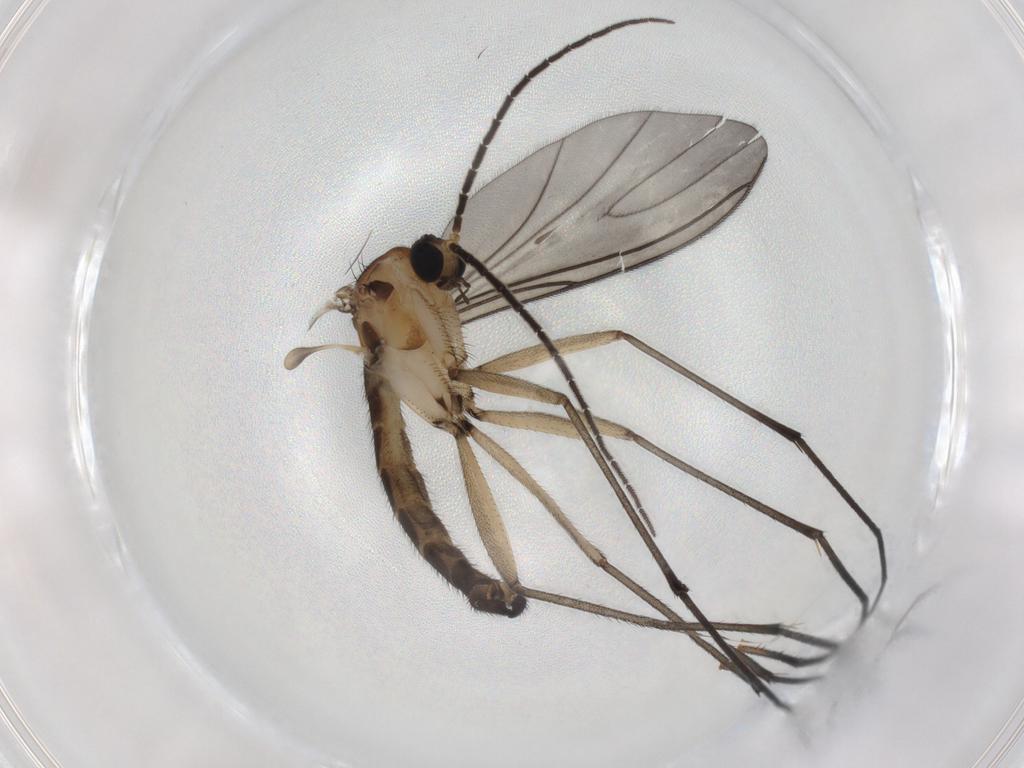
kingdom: Animalia
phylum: Arthropoda
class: Insecta
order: Diptera
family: Sciaridae
